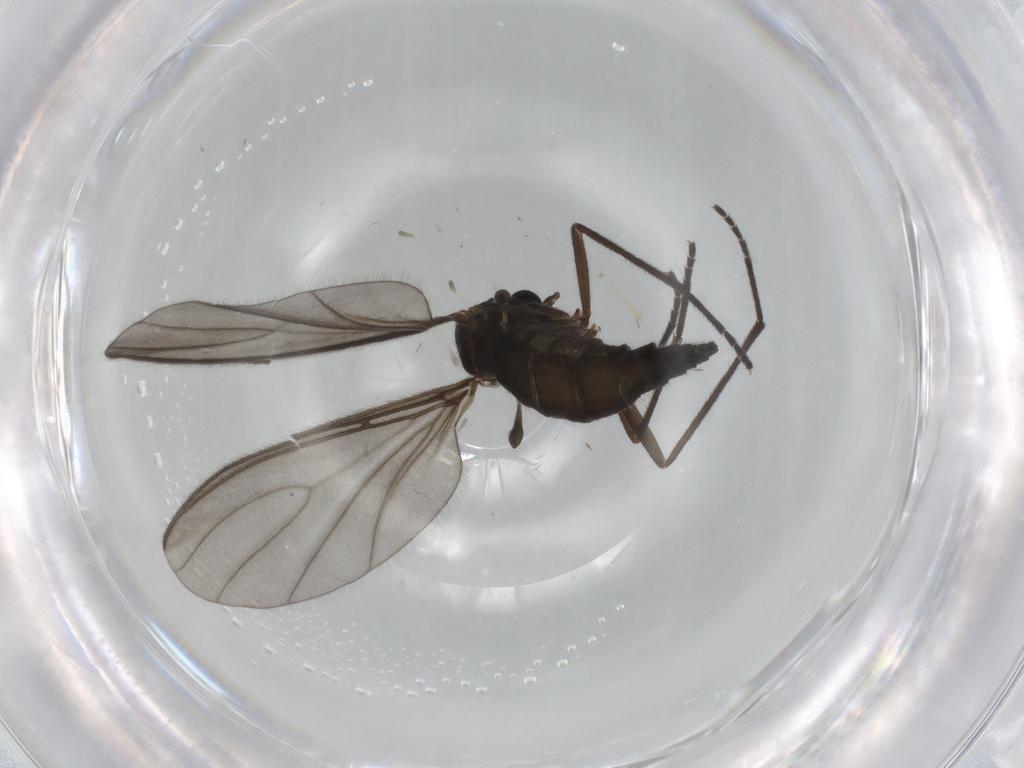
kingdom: Animalia
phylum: Arthropoda
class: Insecta
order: Diptera
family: Sciaridae
